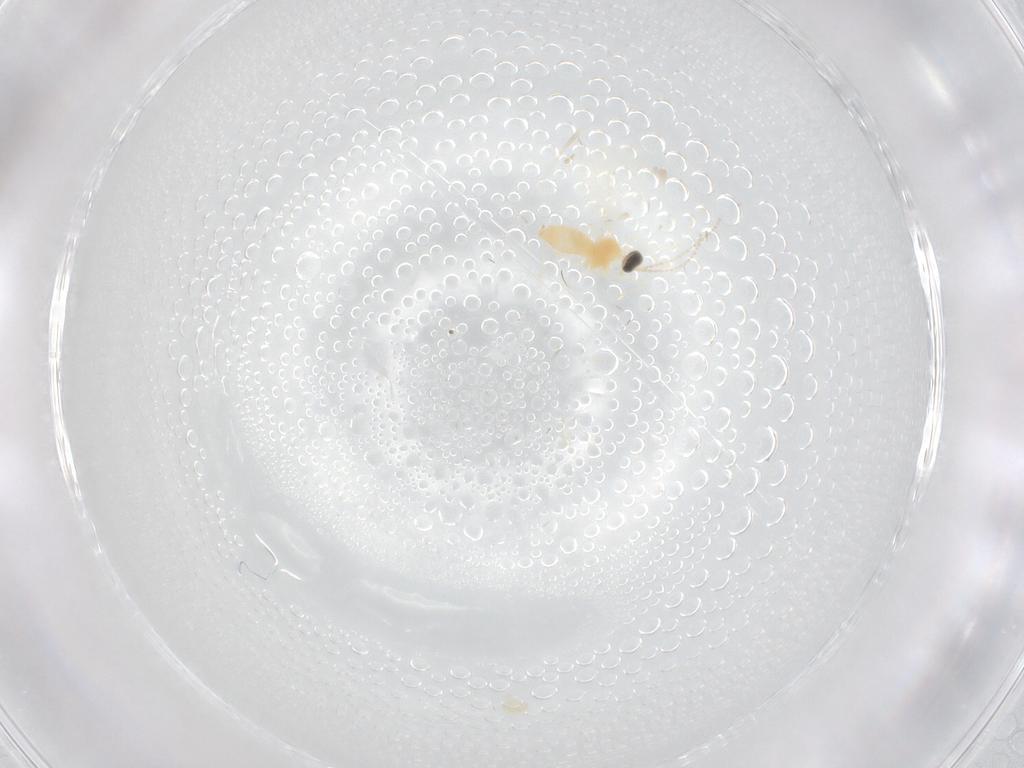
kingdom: Animalia
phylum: Arthropoda
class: Insecta
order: Diptera
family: Cecidomyiidae
